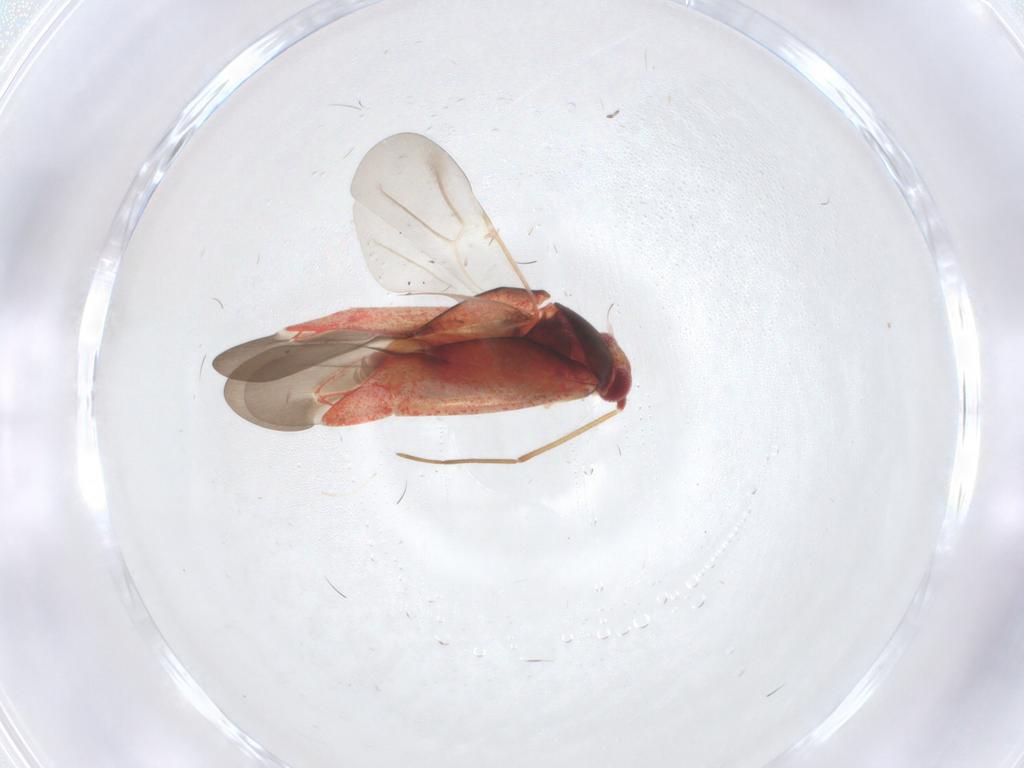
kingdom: Animalia
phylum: Arthropoda
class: Insecta
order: Hemiptera
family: Miridae
